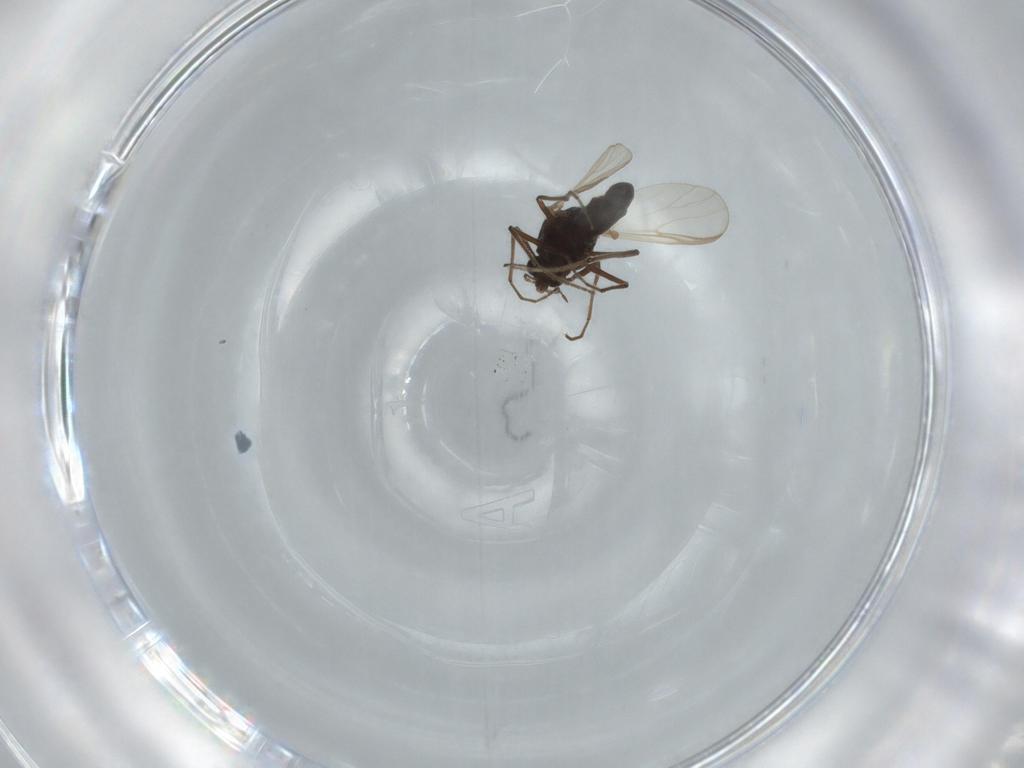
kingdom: Animalia
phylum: Arthropoda
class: Insecta
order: Diptera
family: Chironomidae
